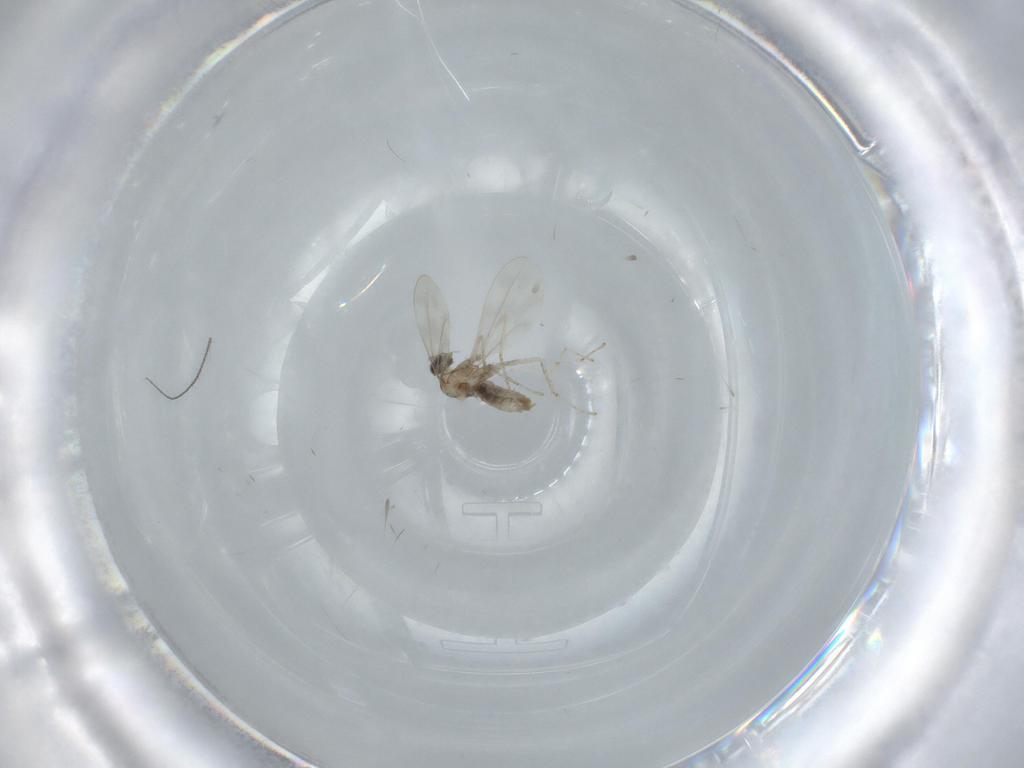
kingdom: Animalia
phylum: Arthropoda
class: Insecta
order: Diptera
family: Cecidomyiidae
